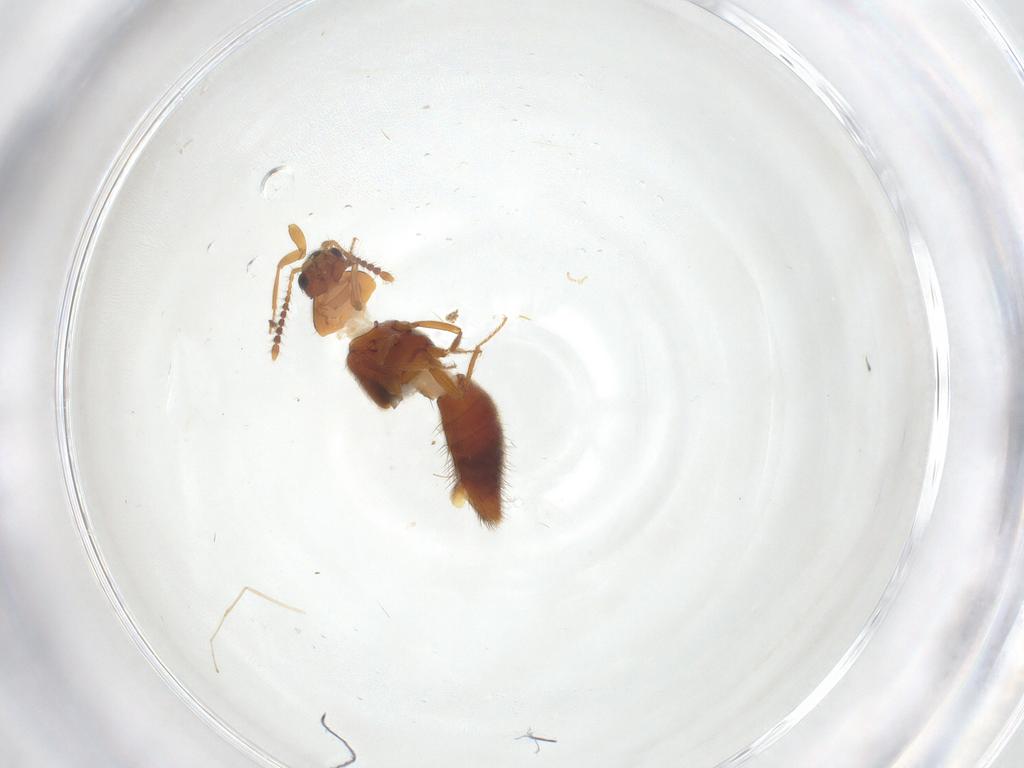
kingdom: Animalia
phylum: Arthropoda
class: Insecta
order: Coleoptera
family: Staphylinidae
